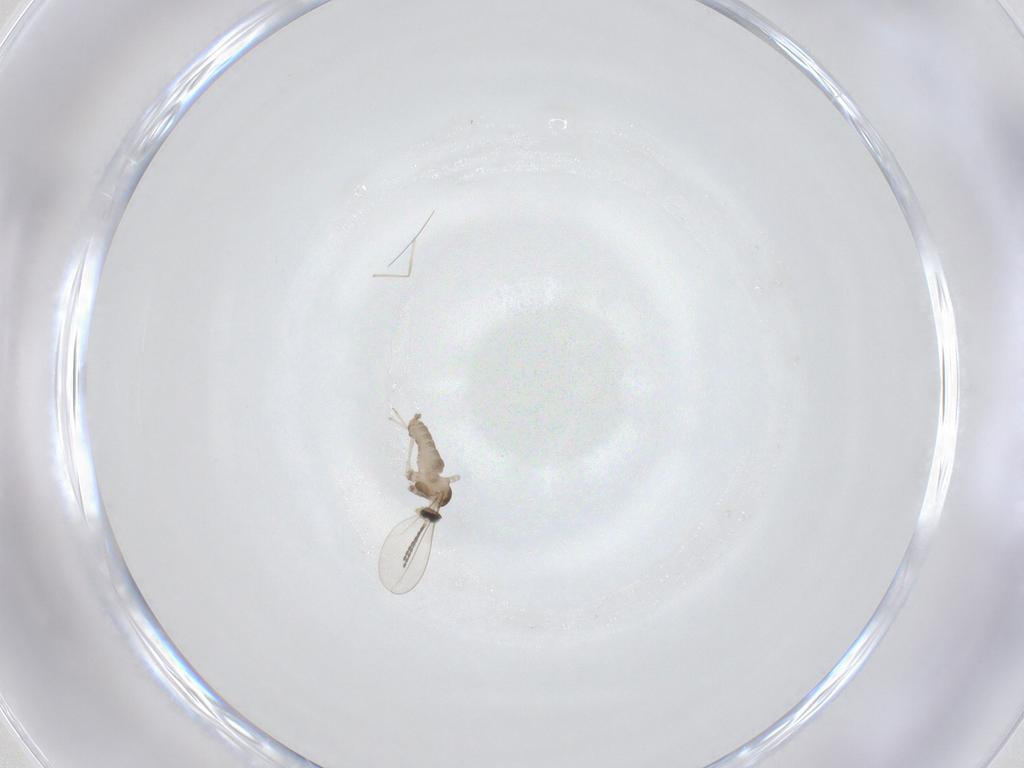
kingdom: Animalia
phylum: Arthropoda
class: Insecta
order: Diptera
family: Cecidomyiidae
